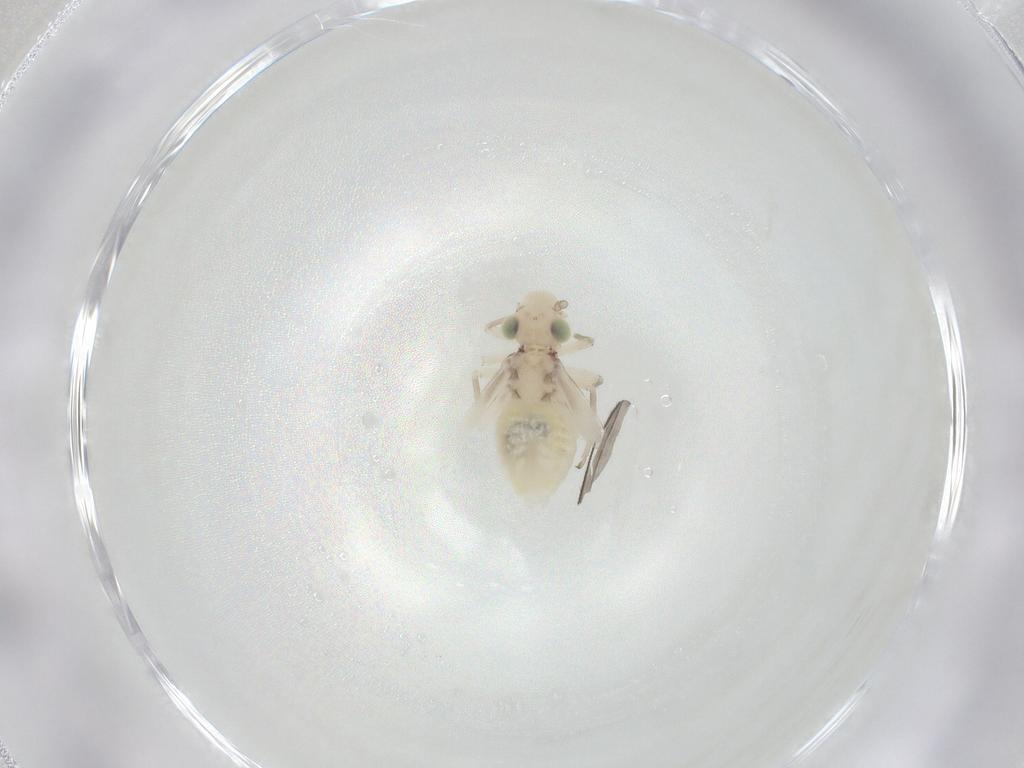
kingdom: Animalia
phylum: Arthropoda
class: Insecta
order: Psocodea
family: Caeciliusidae
